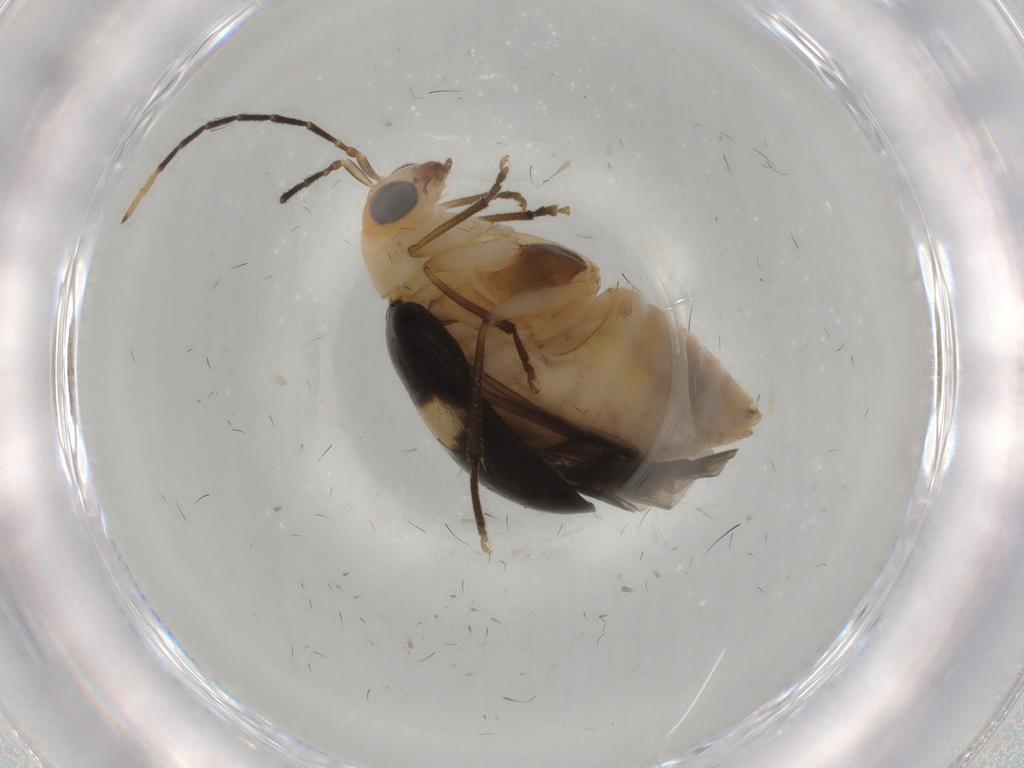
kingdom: Animalia
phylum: Arthropoda
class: Insecta
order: Coleoptera
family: Chrysomelidae
